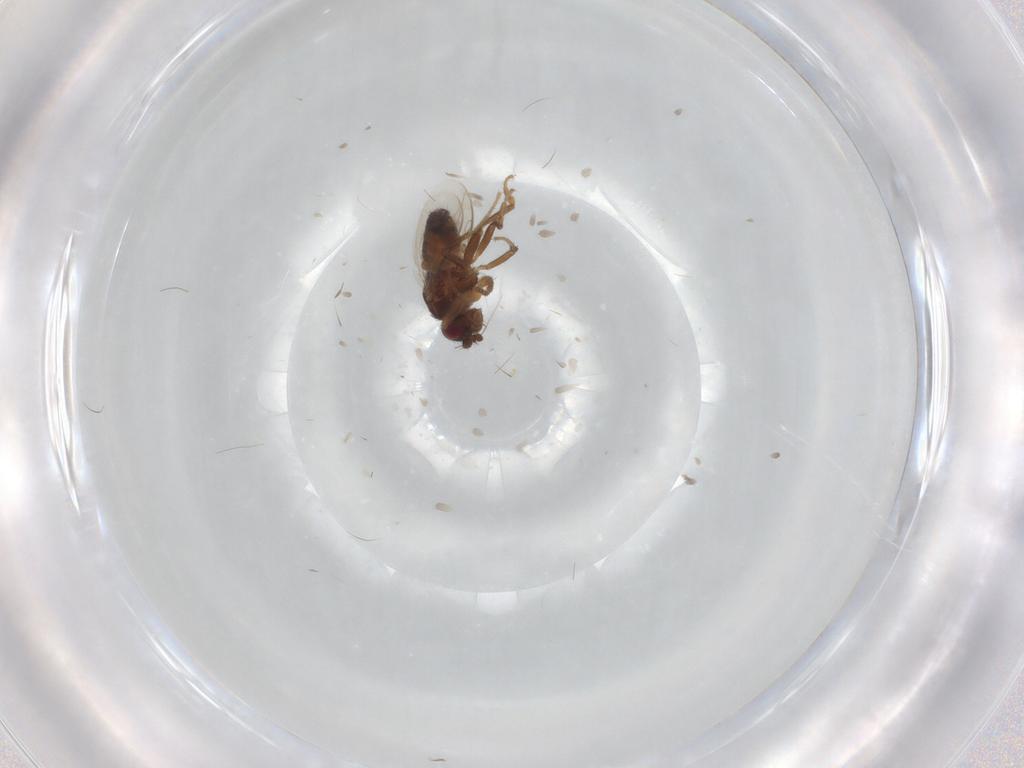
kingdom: Animalia
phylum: Arthropoda
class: Insecta
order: Diptera
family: Sphaeroceridae
